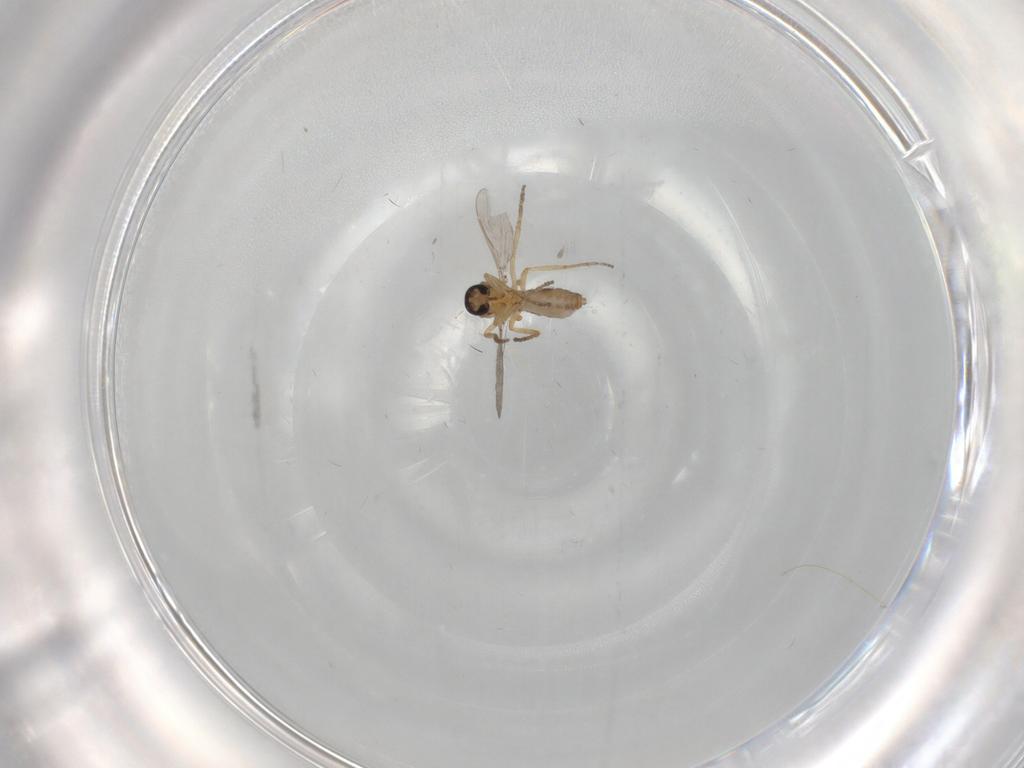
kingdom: Animalia
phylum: Arthropoda
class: Insecta
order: Diptera
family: Ceratopogonidae
